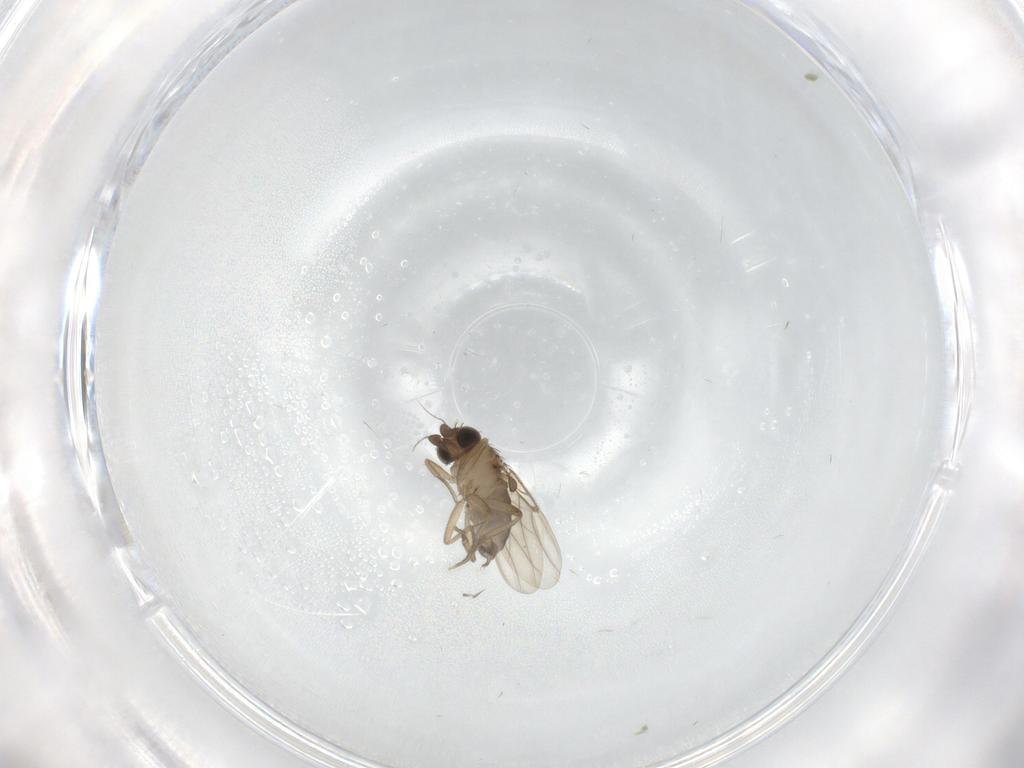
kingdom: Animalia
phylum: Arthropoda
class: Insecta
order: Diptera
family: Phoridae
